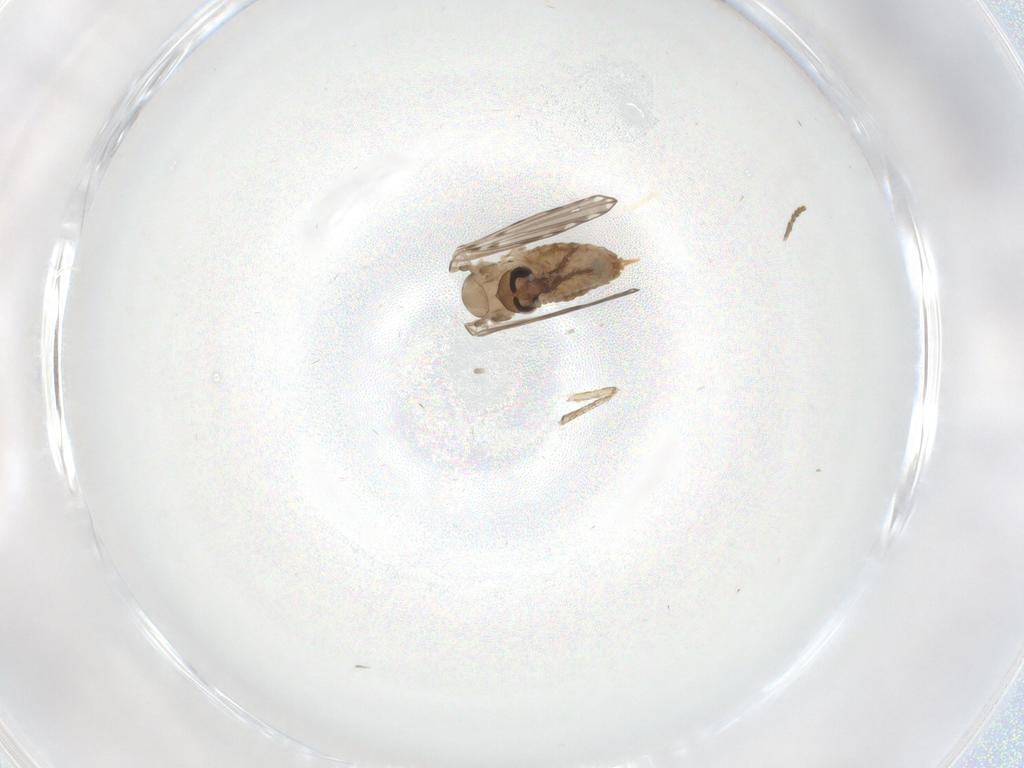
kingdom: Animalia
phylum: Arthropoda
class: Insecta
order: Diptera
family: Psychodidae
